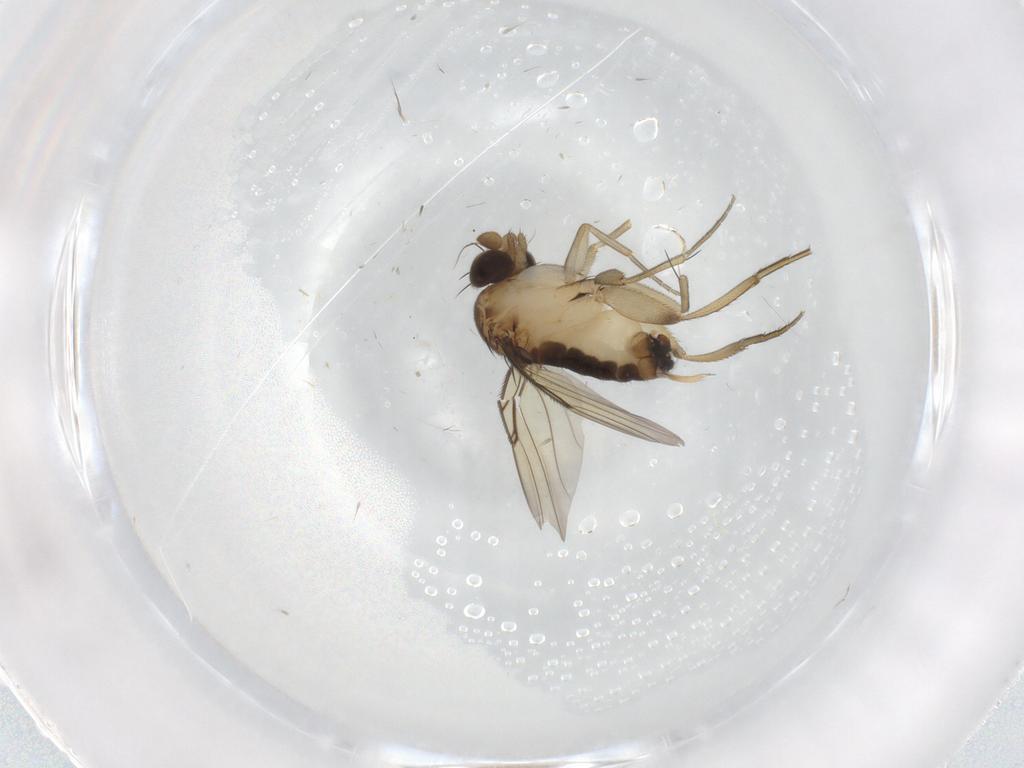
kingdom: Animalia
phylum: Arthropoda
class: Insecta
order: Diptera
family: Phoridae
